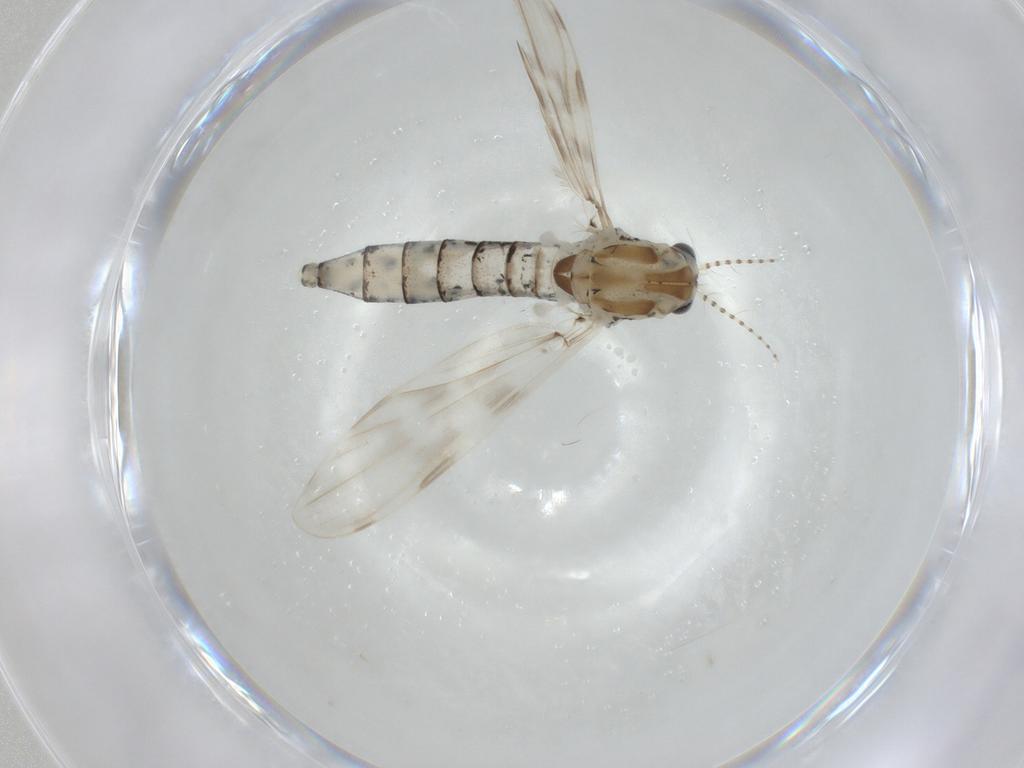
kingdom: Animalia
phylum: Arthropoda
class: Insecta
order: Diptera
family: Chaoboridae
